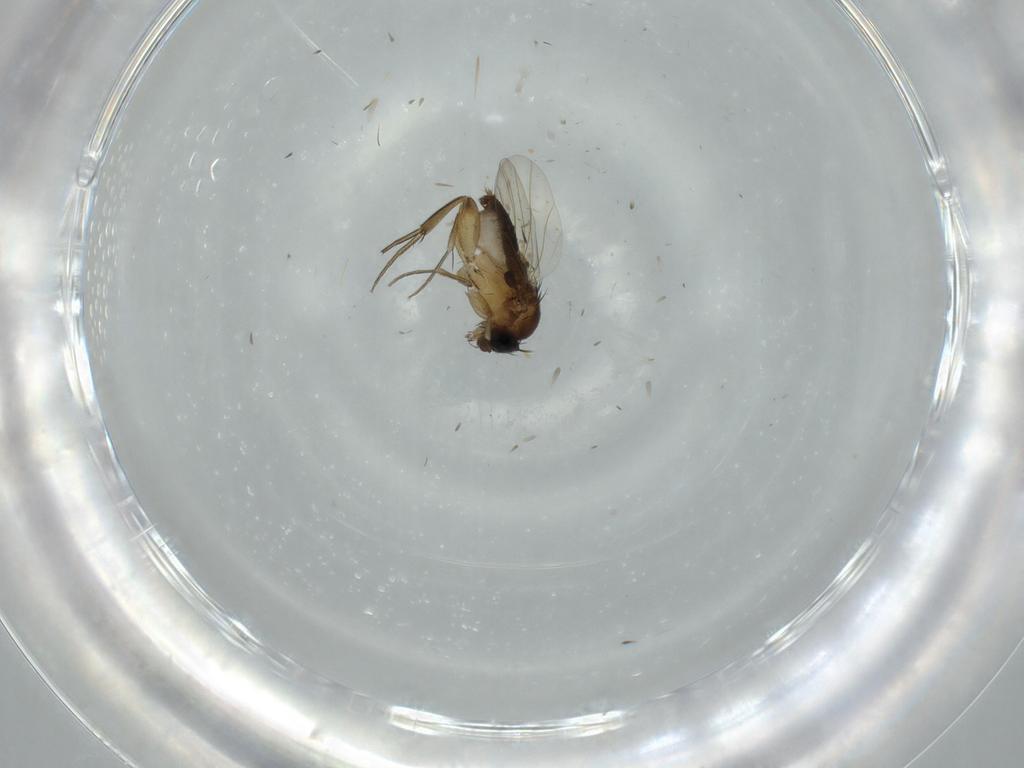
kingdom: Animalia
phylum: Arthropoda
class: Insecta
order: Diptera
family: Phoridae
